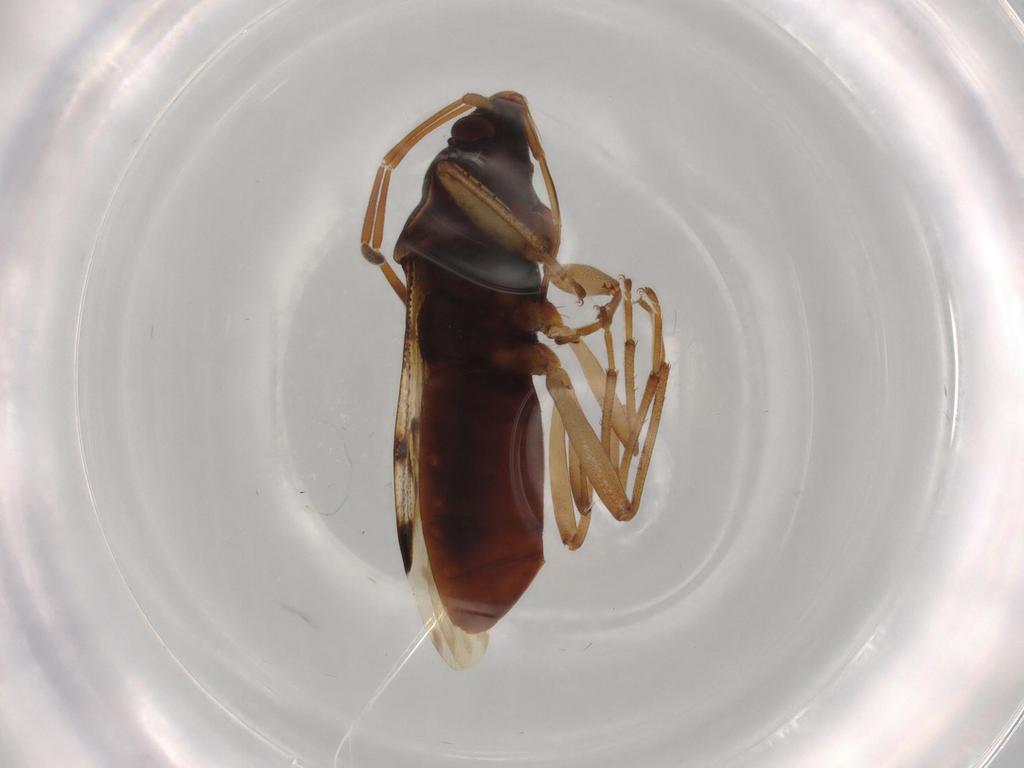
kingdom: Animalia
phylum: Arthropoda
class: Insecta
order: Hemiptera
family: Rhyparochromidae
